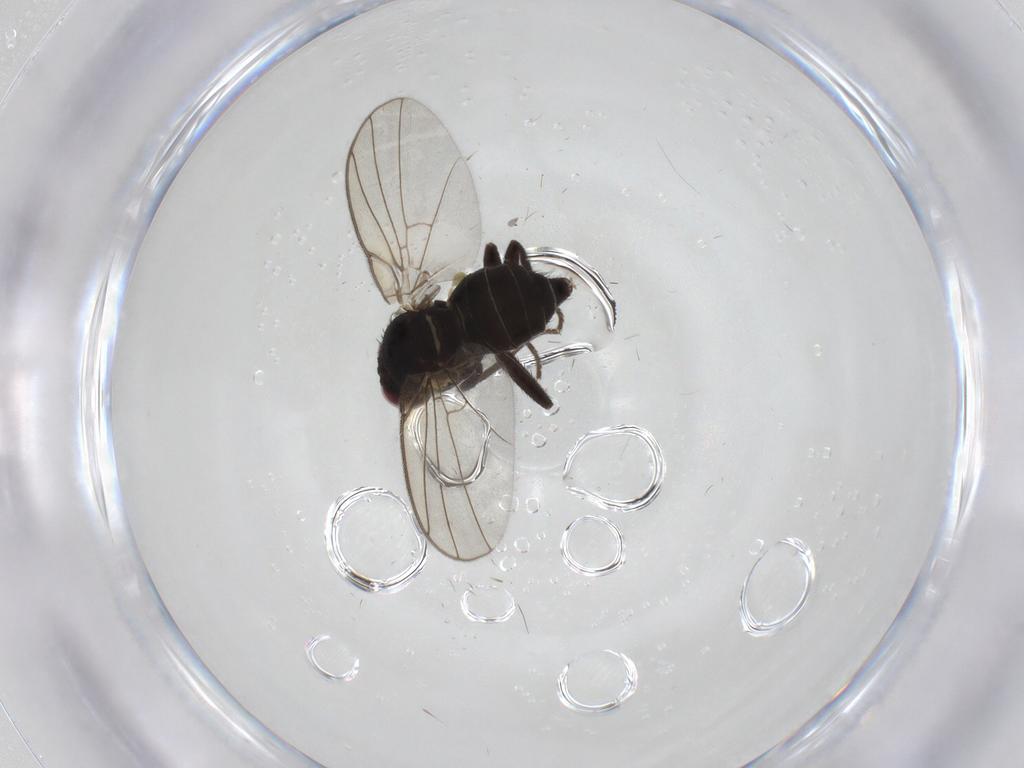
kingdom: Animalia
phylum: Arthropoda
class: Insecta
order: Diptera
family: Agromyzidae
